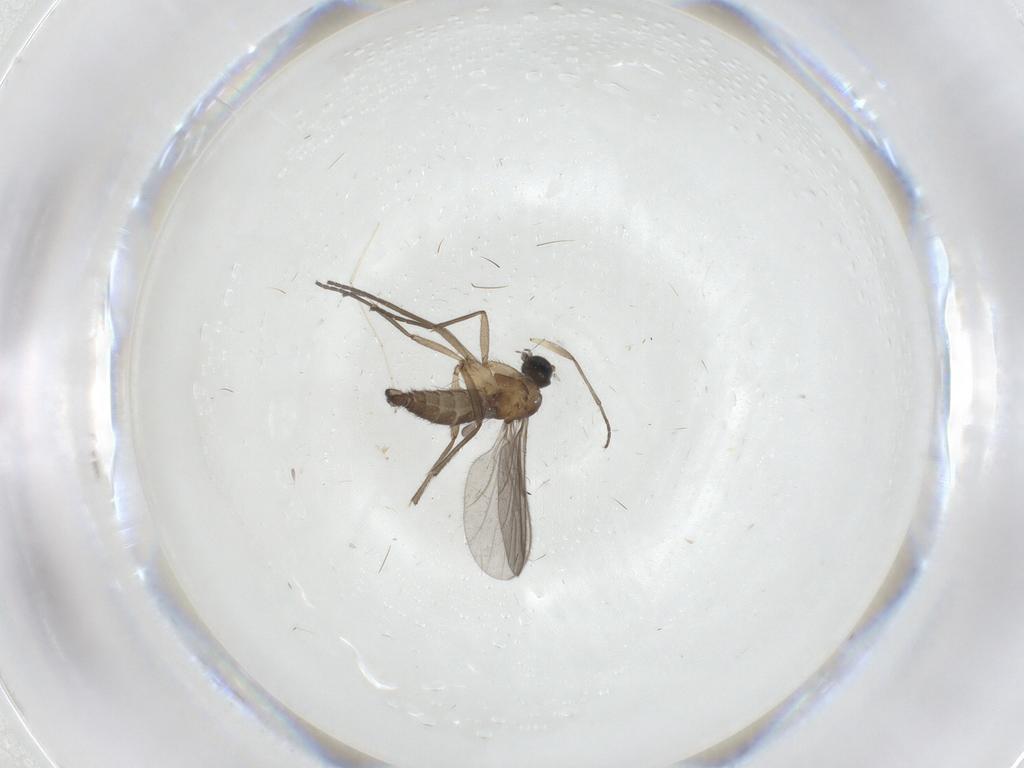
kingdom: Animalia
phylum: Arthropoda
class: Insecta
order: Diptera
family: Sciaridae
